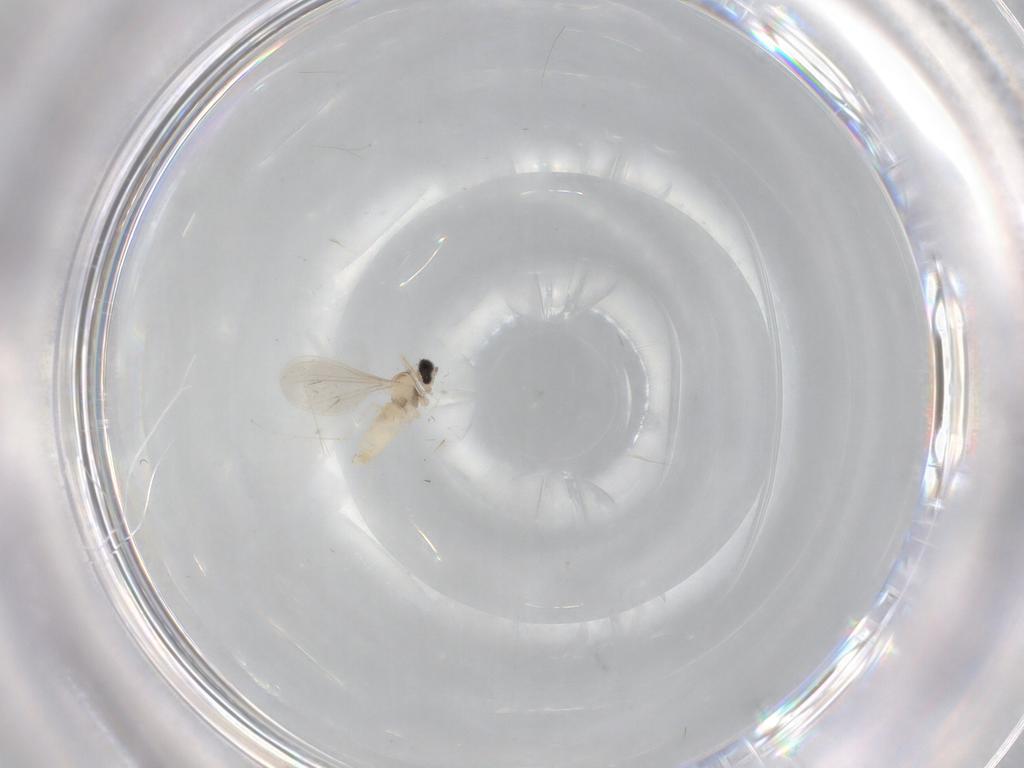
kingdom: Animalia
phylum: Arthropoda
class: Insecta
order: Diptera
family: Cecidomyiidae
